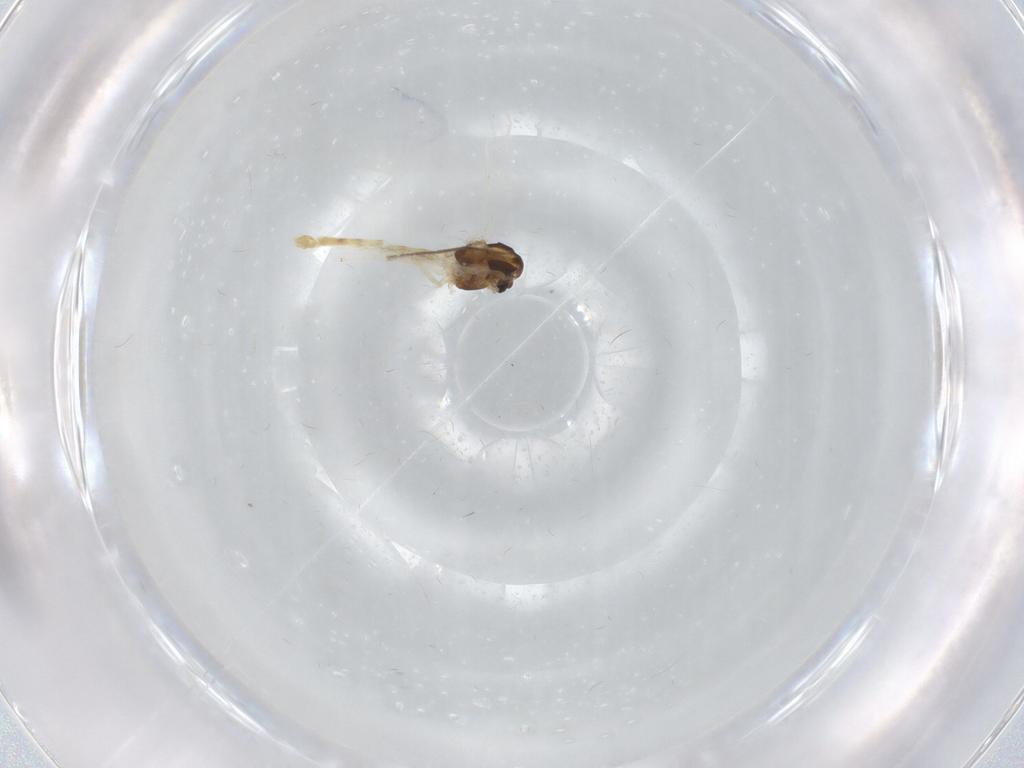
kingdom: Animalia
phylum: Arthropoda
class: Insecta
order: Diptera
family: Chironomidae
